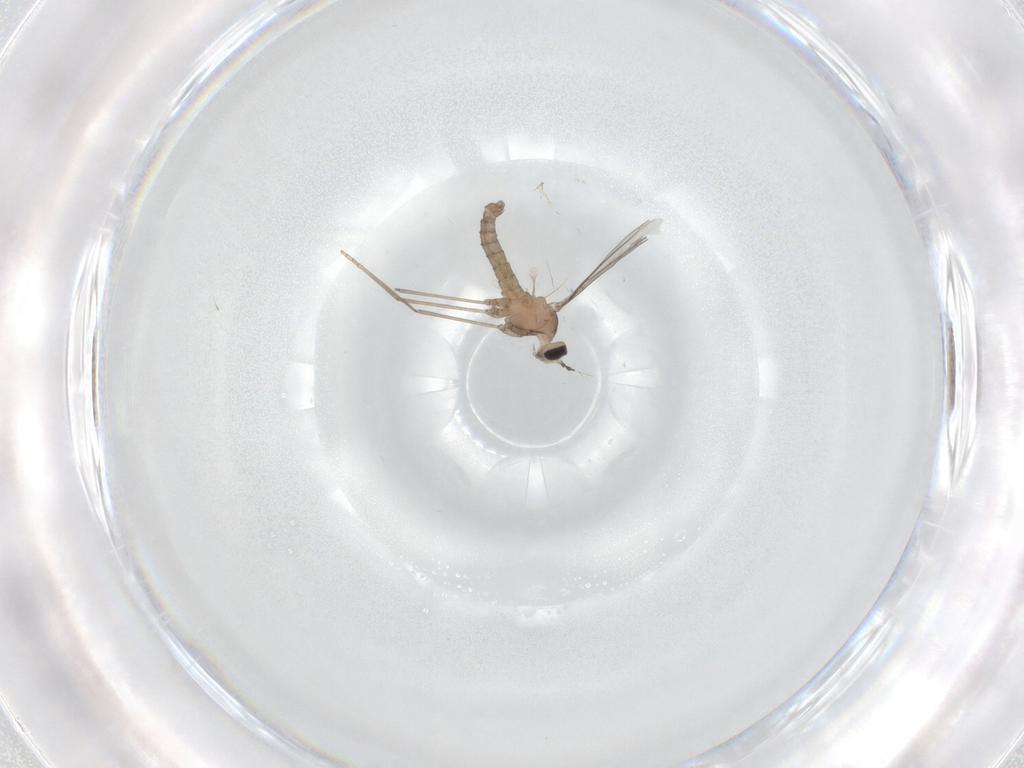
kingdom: Animalia
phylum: Arthropoda
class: Insecta
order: Diptera
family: Cecidomyiidae
